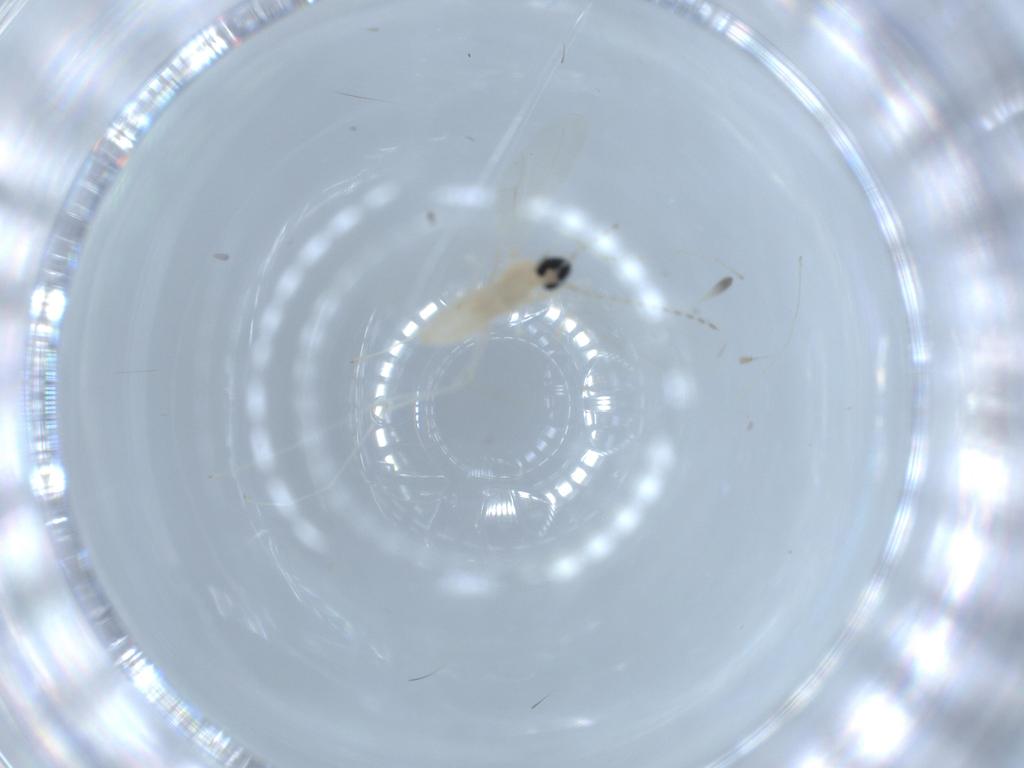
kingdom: Animalia
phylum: Arthropoda
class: Insecta
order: Diptera
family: Cecidomyiidae
